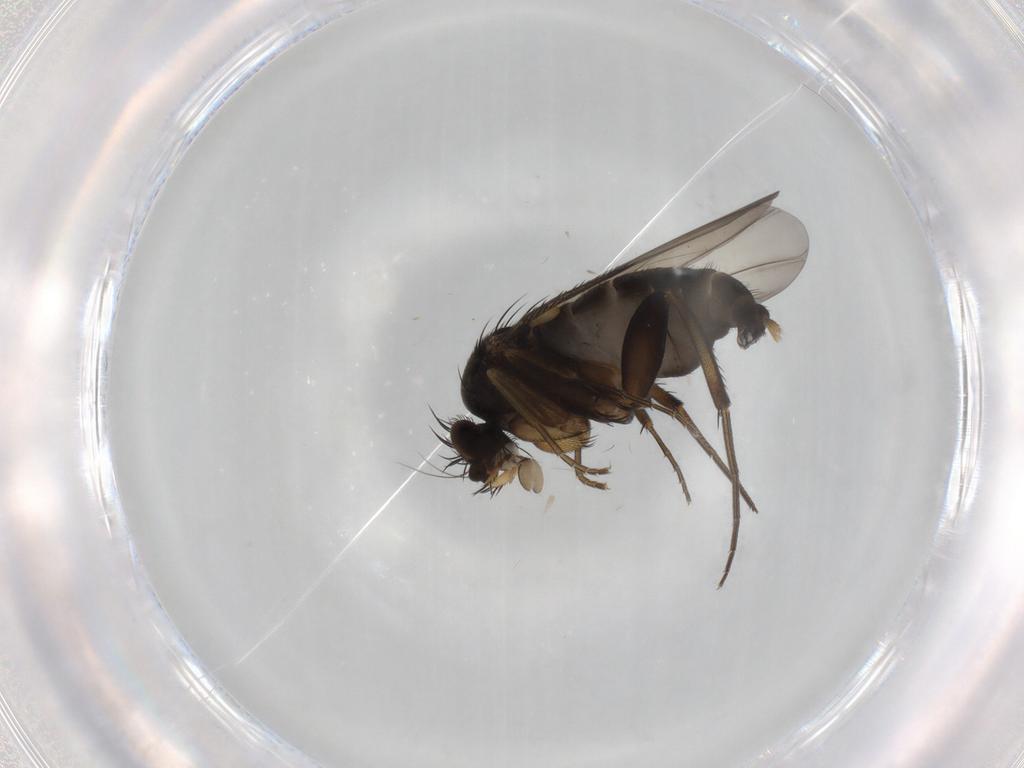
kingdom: Animalia
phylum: Arthropoda
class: Insecta
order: Diptera
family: Phoridae
